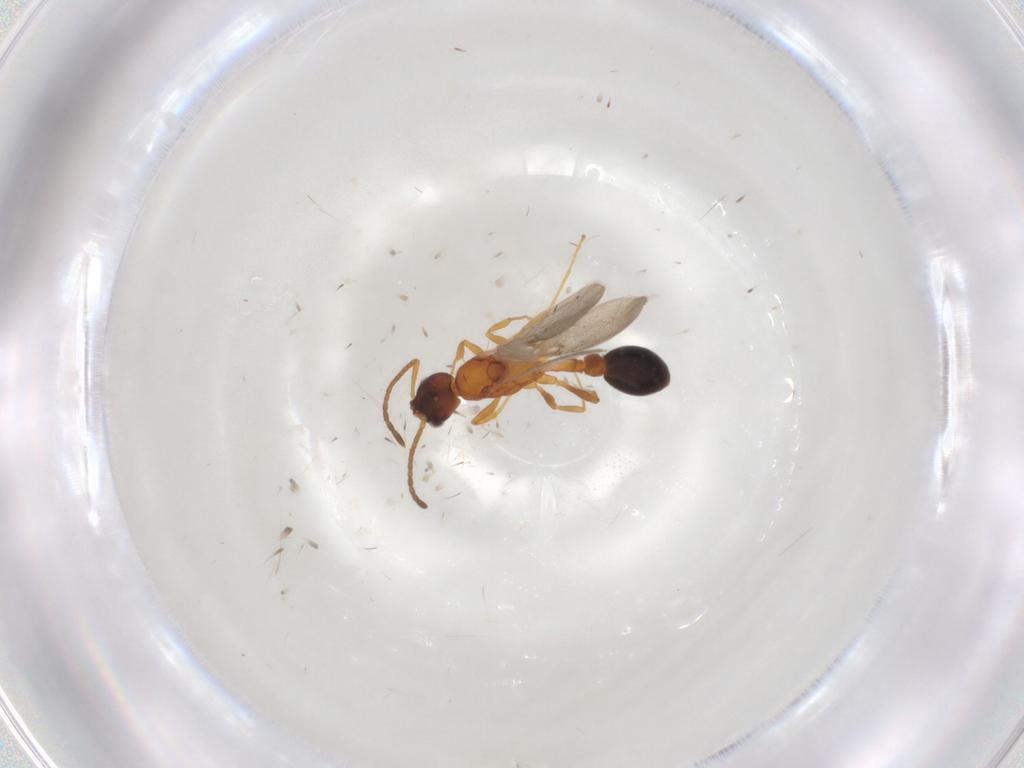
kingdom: Animalia
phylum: Arthropoda
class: Insecta
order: Hymenoptera
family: Formicidae
